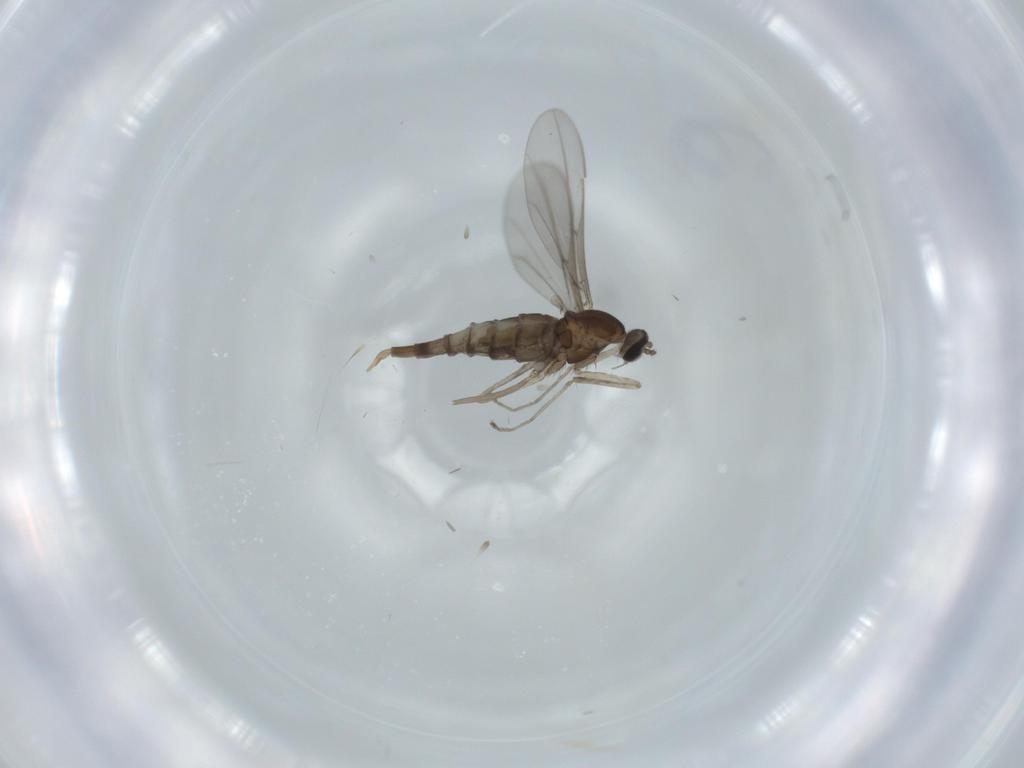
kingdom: Animalia
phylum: Arthropoda
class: Insecta
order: Diptera
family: Cecidomyiidae
